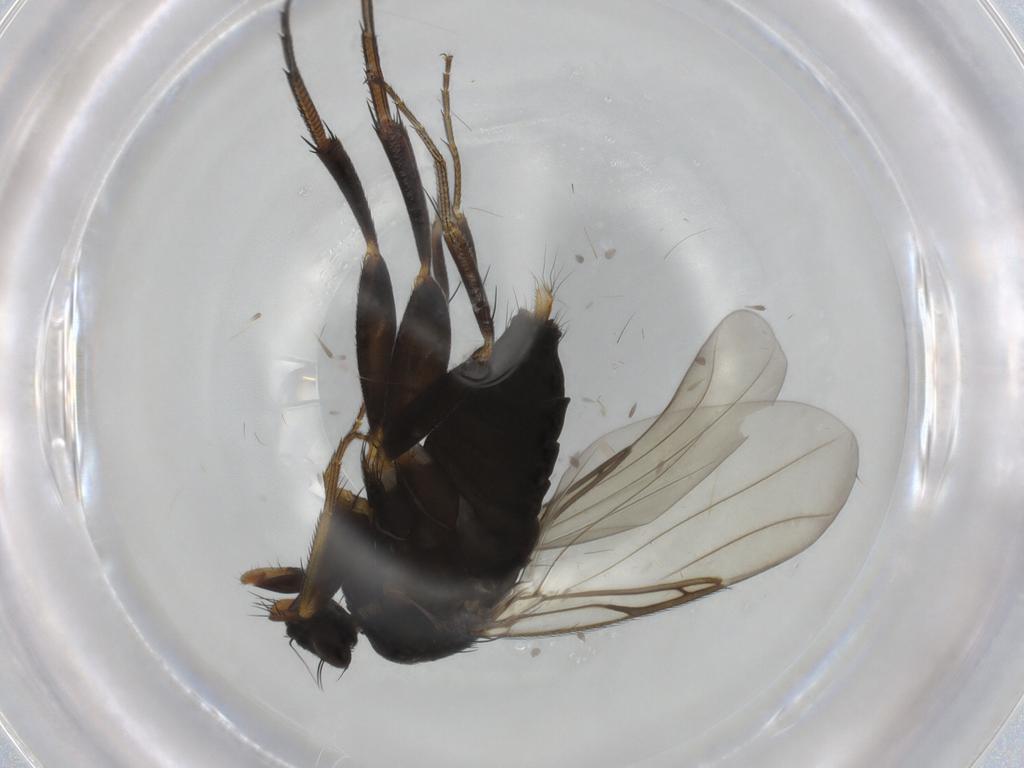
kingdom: Animalia
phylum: Arthropoda
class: Insecta
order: Diptera
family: Phoridae
